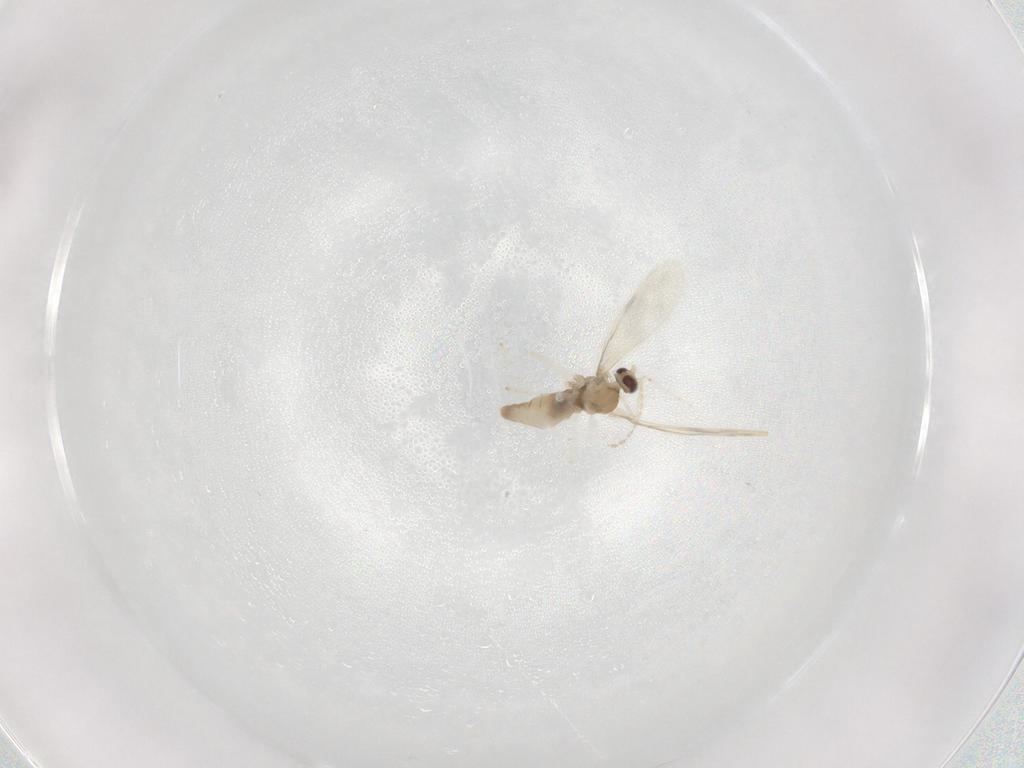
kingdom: Animalia
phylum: Arthropoda
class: Insecta
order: Diptera
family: Cecidomyiidae
